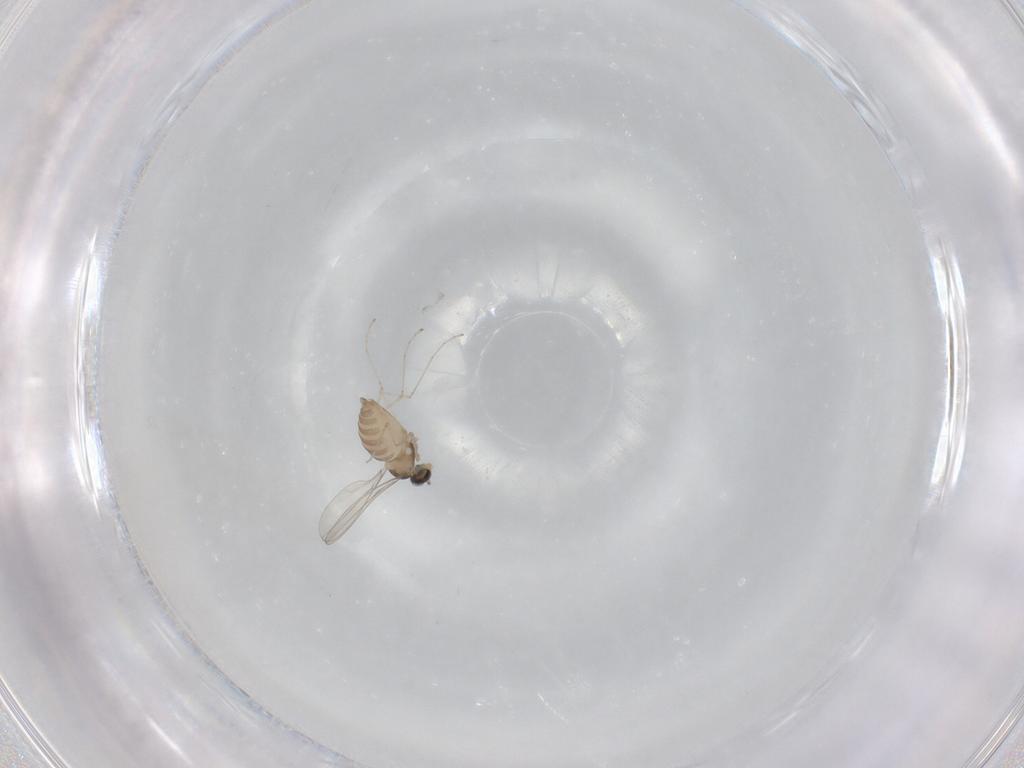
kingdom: Animalia
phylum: Arthropoda
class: Insecta
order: Diptera
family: Cecidomyiidae
